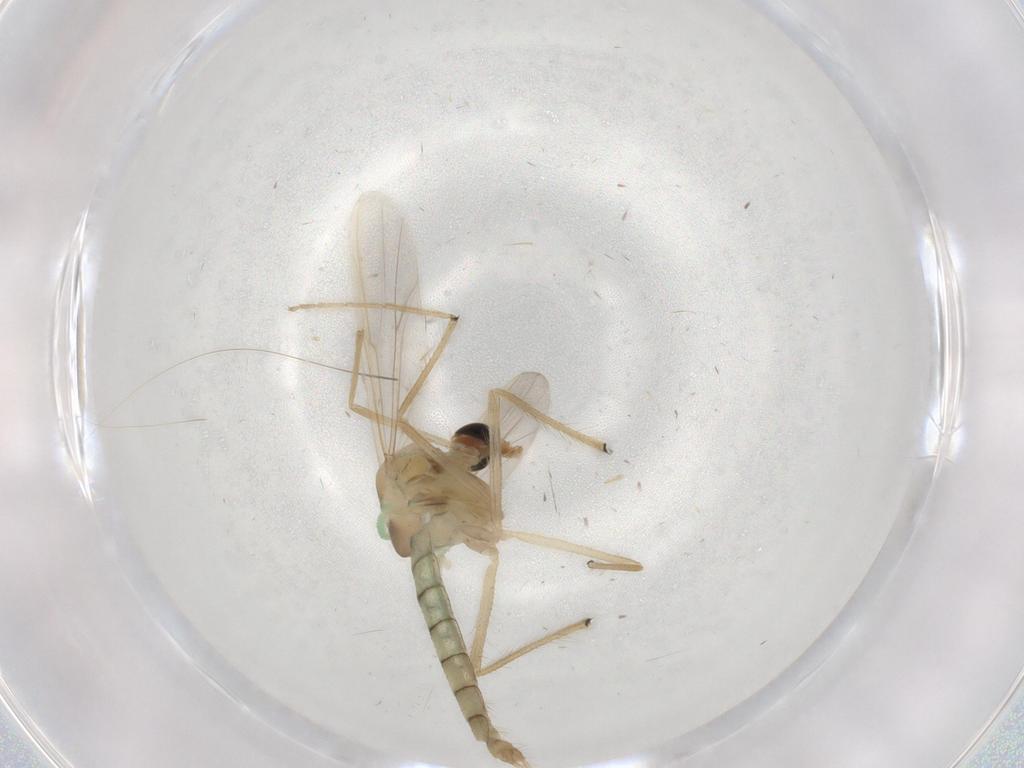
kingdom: Animalia
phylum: Arthropoda
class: Insecta
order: Diptera
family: Chironomidae
